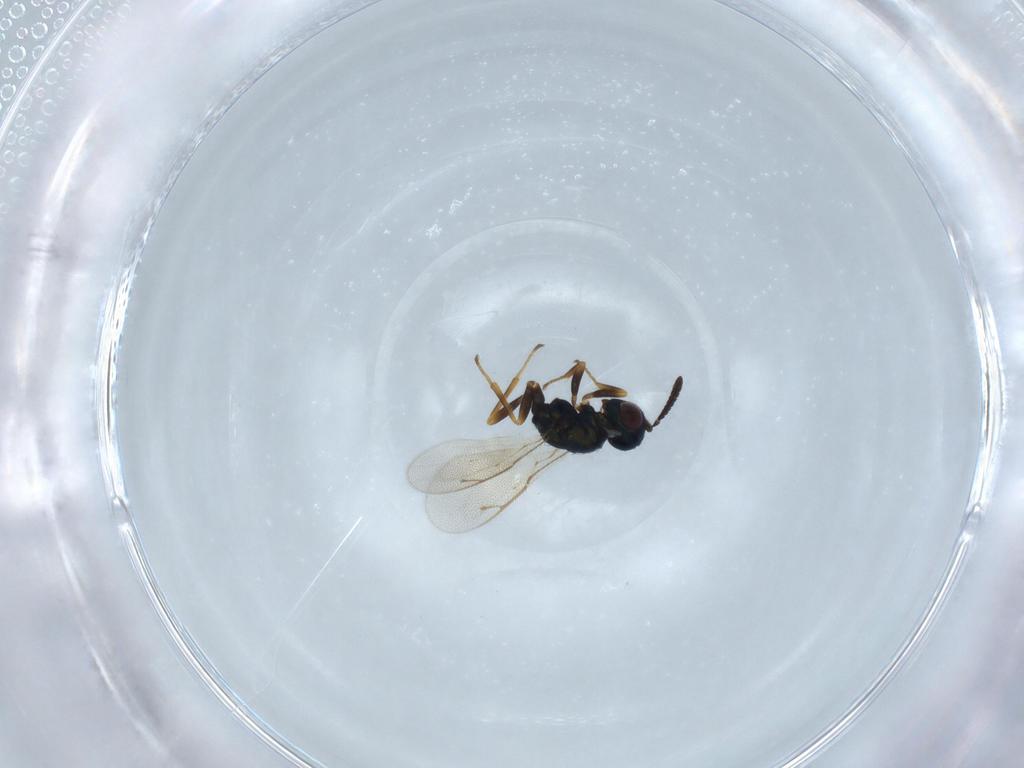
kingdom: Animalia
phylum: Arthropoda
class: Insecta
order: Hymenoptera
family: Pteromalidae
